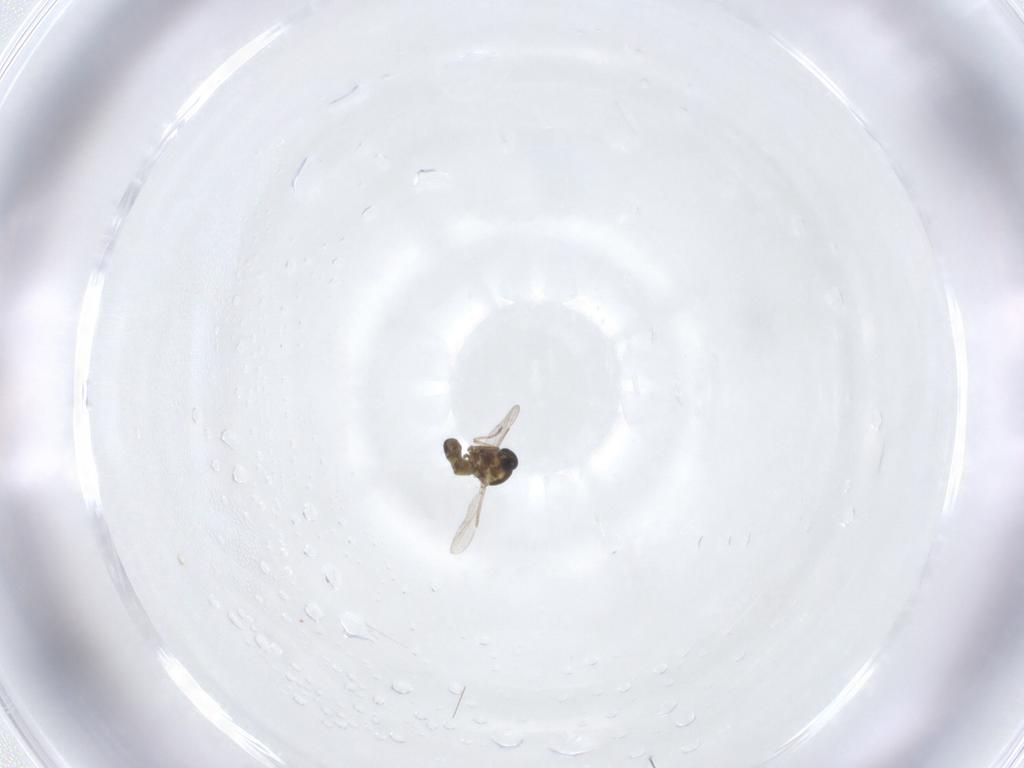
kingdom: Animalia
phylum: Arthropoda
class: Insecta
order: Diptera
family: Ceratopogonidae
